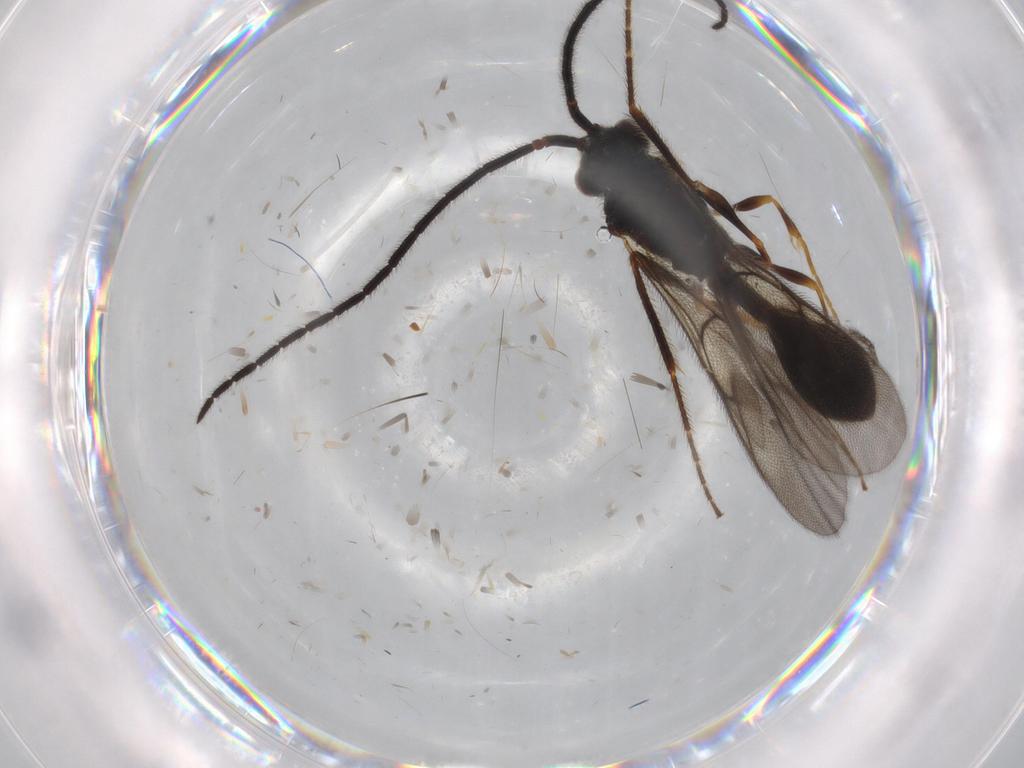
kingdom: Animalia
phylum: Arthropoda
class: Insecta
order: Hymenoptera
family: Diapriidae
